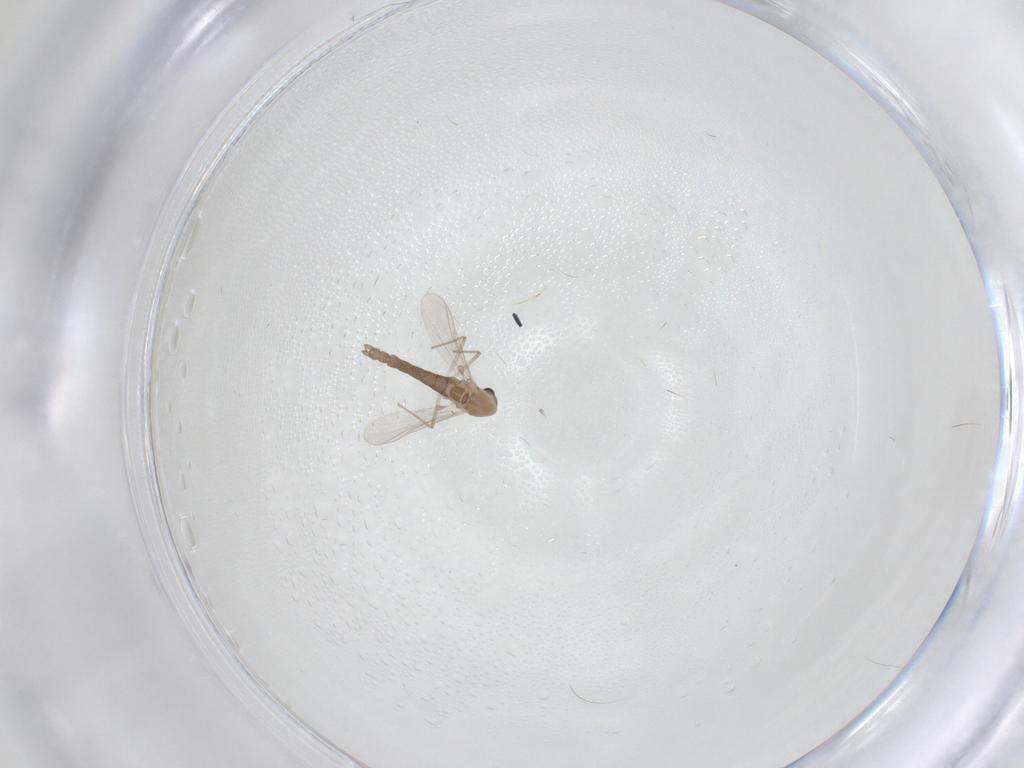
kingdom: Animalia
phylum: Arthropoda
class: Insecta
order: Diptera
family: Chironomidae
